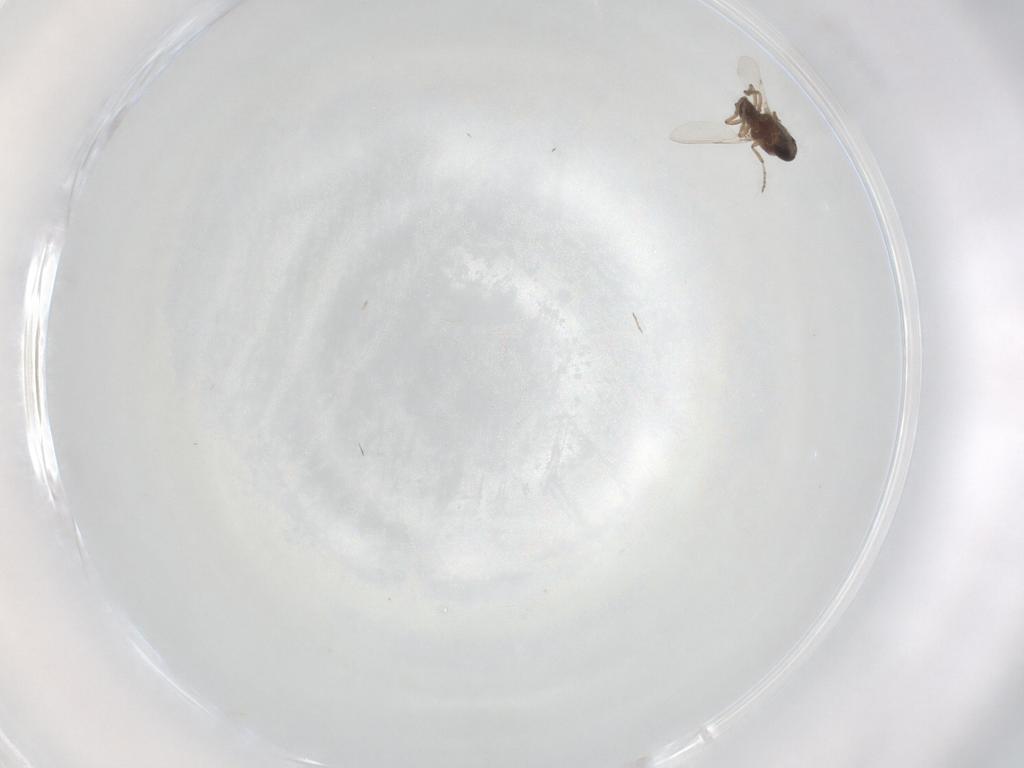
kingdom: Animalia
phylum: Arthropoda
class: Insecta
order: Diptera
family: Ceratopogonidae
